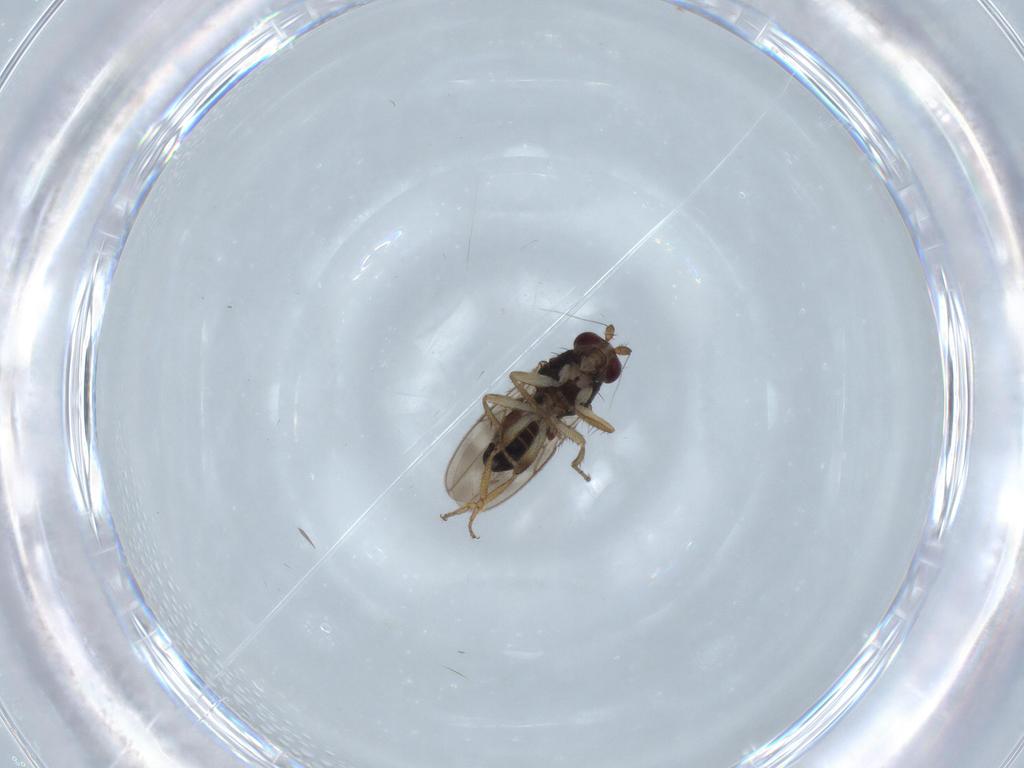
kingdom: Animalia
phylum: Arthropoda
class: Insecta
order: Diptera
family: Sphaeroceridae
